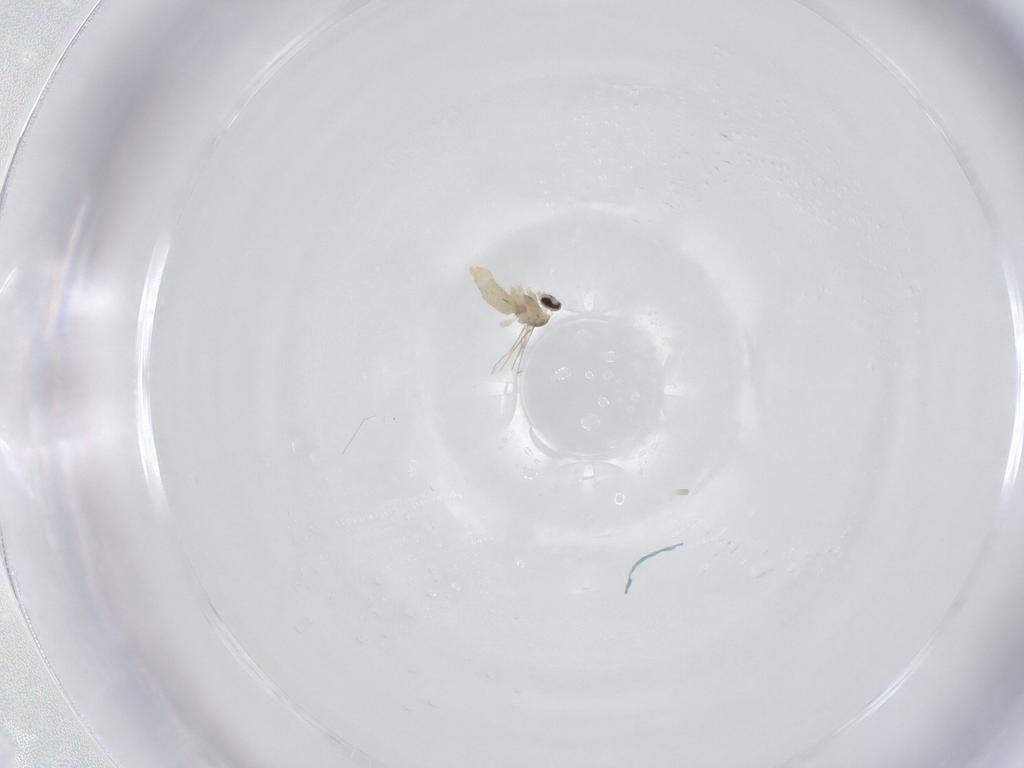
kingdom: Animalia
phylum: Arthropoda
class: Insecta
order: Diptera
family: Cecidomyiidae
